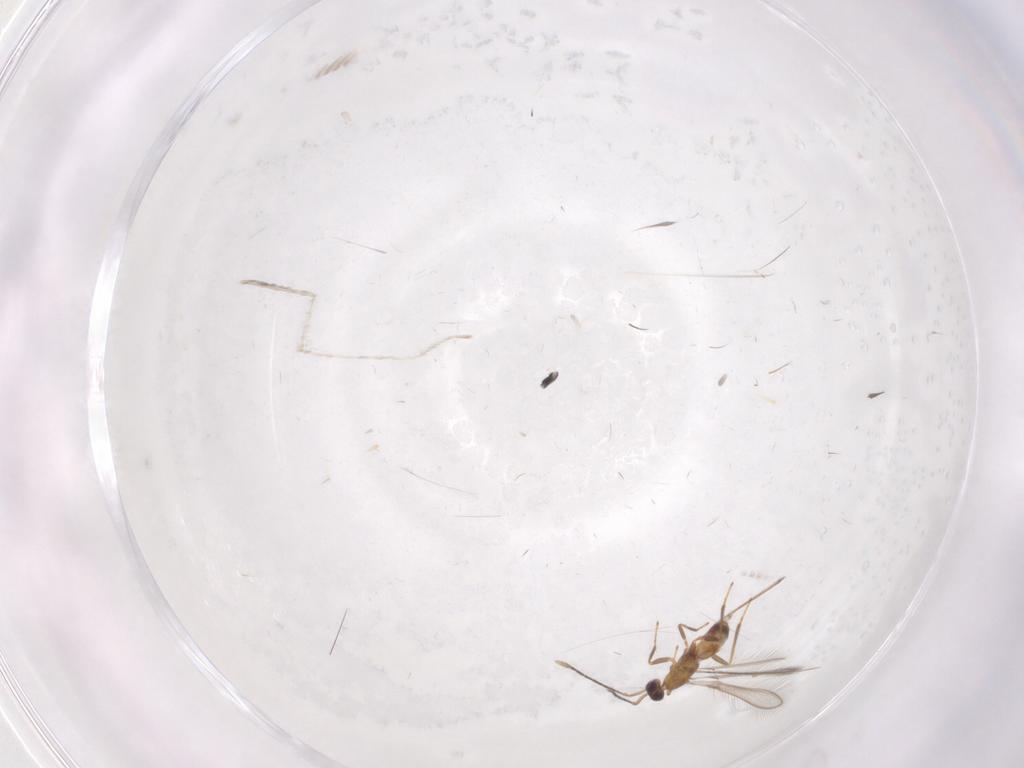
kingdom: Animalia
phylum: Arthropoda
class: Insecta
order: Hymenoptera
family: Mymaridae
